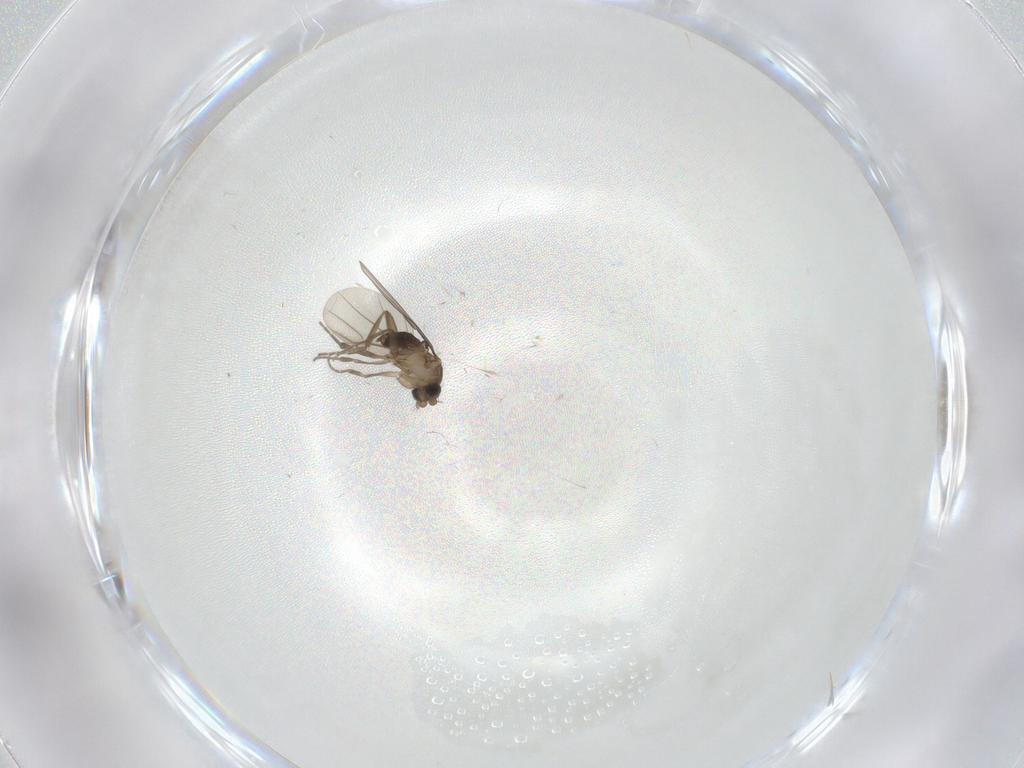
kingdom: Animalia
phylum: Arthropoda
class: Insecta
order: Diptera
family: Phoridae
